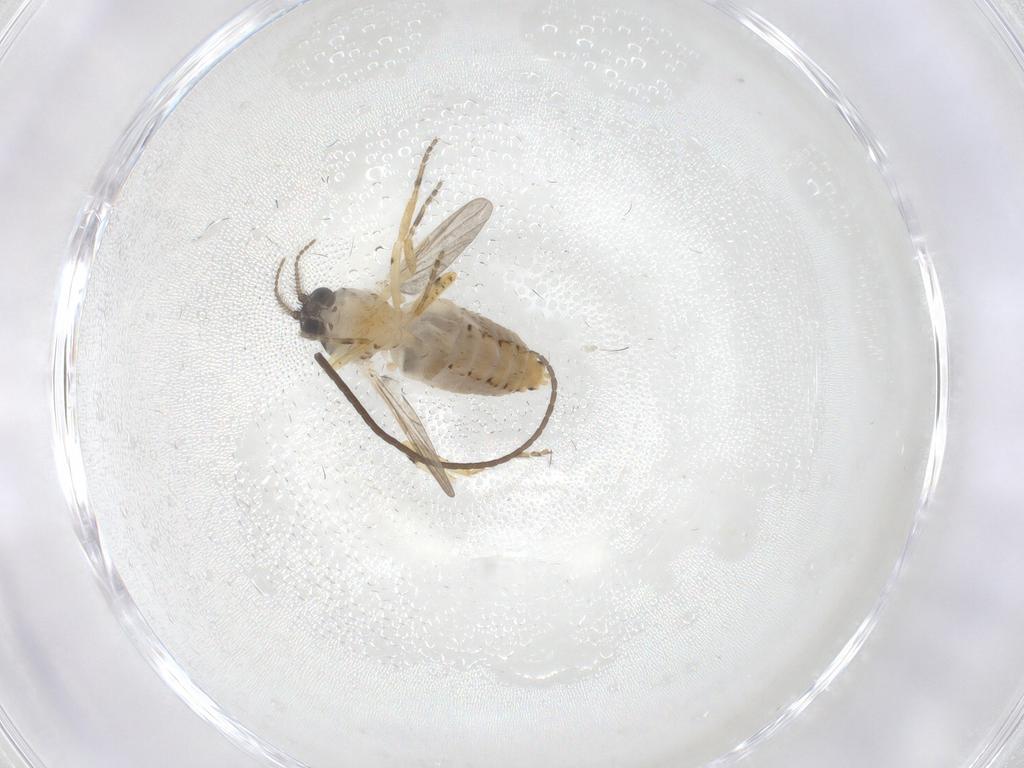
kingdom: Animalia
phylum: Arthropoda
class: Insecta
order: Diptera
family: Ceratopogonidae
